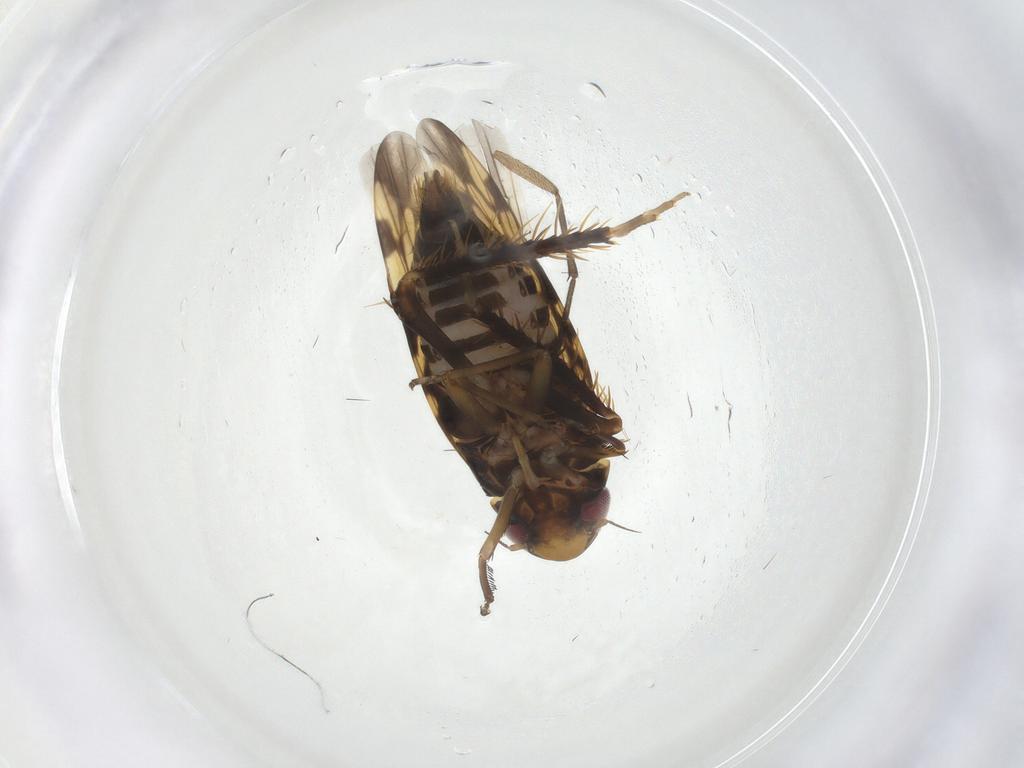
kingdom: Animalia
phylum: Arthropoda
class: Insecta
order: Hemiptera
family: Cicadellidae
